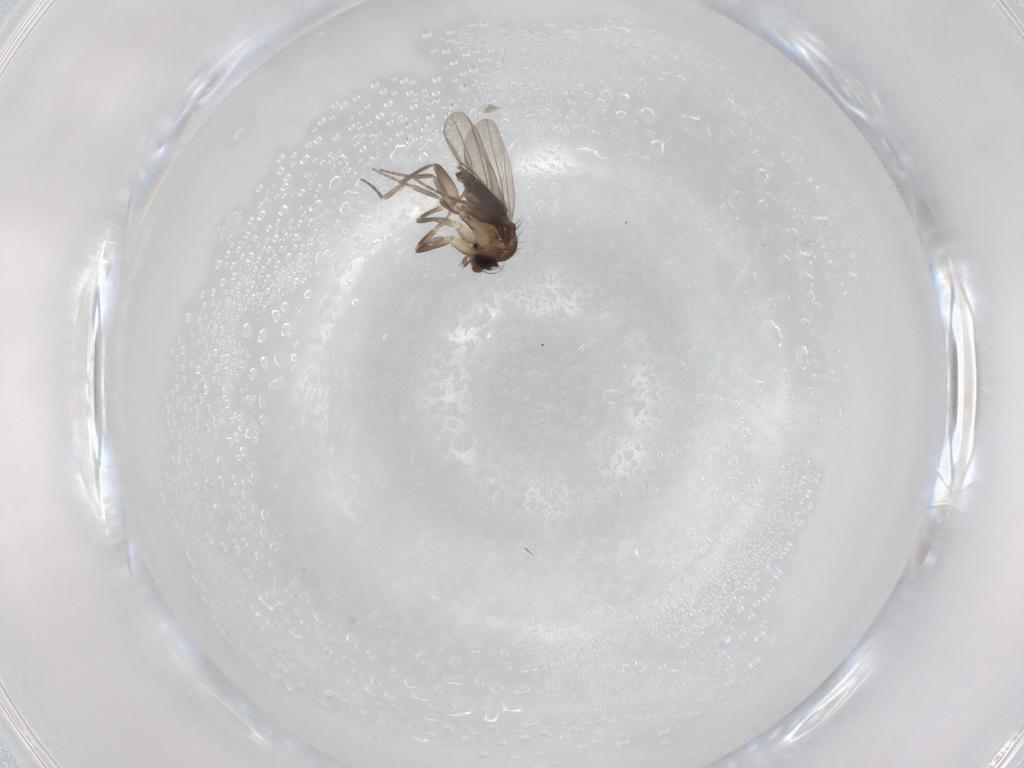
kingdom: Animalia
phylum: Arthropoda
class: Insecta
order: Diptera
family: Phoridae
